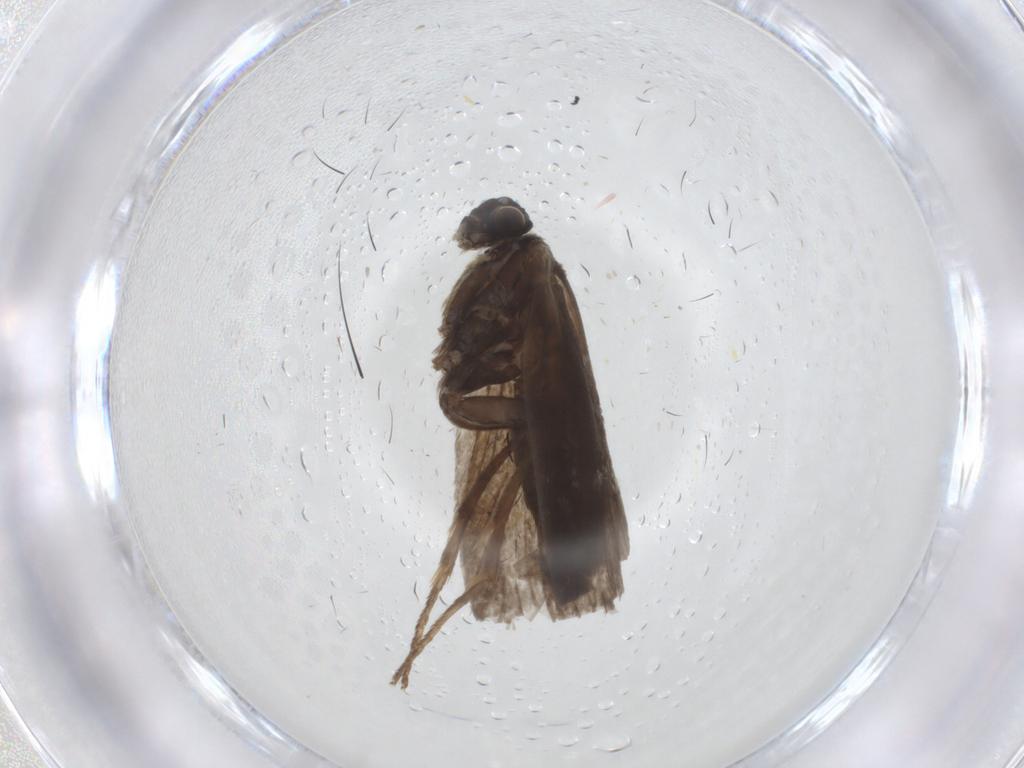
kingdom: Animalia
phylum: Arthropoda
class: Insecta
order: Lepidoptera
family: Micropterigidae
